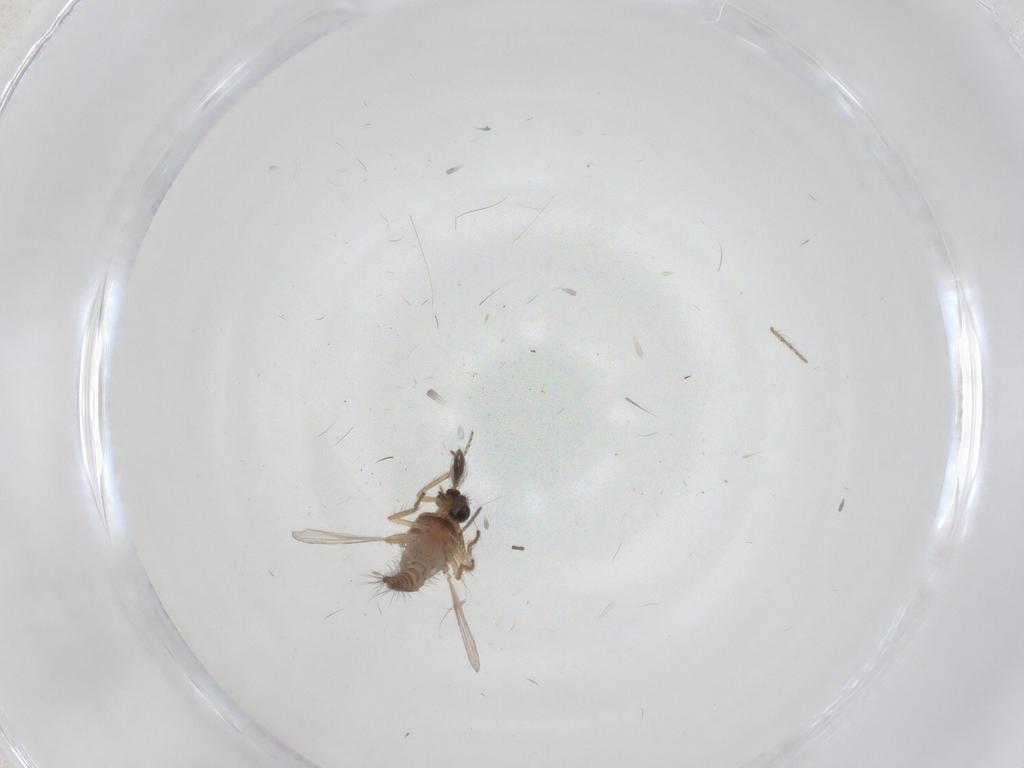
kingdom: Animalia
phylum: Arthropoda
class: Insecta
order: Diptera
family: Ceratopogonidae
